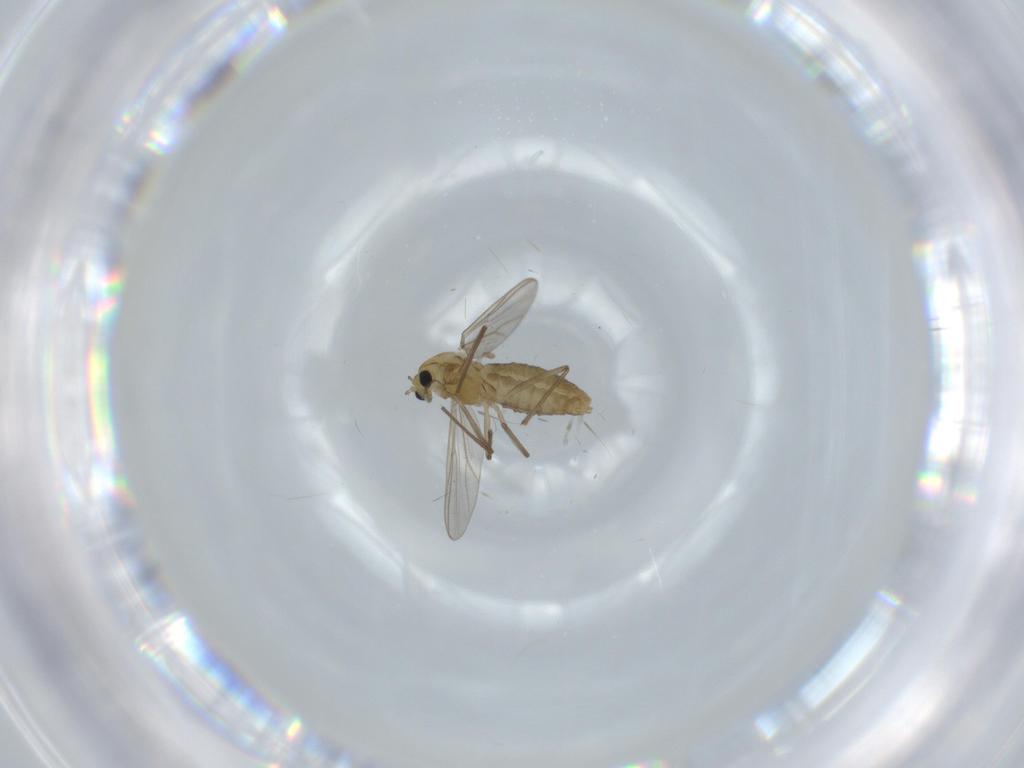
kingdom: Animalia
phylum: Arthropoda
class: Insecta
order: Diptera
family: Chironomidae
